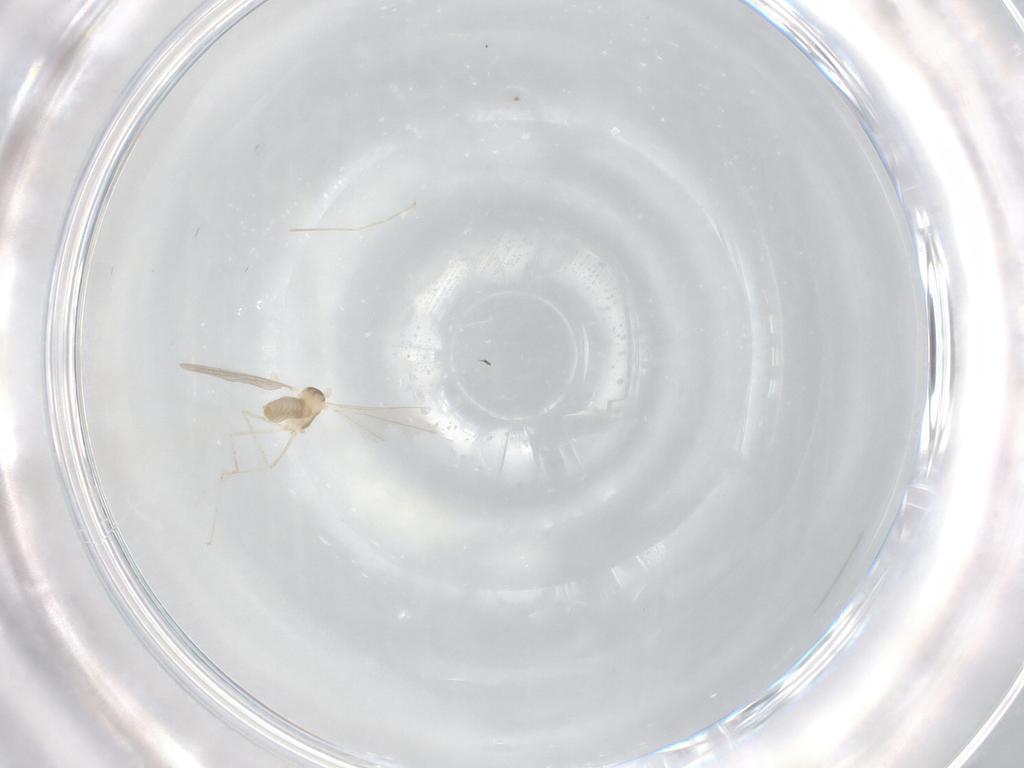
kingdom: Animalia
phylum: Arthropoda
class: Insecta
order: Diptera
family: Cecidomyiidae
